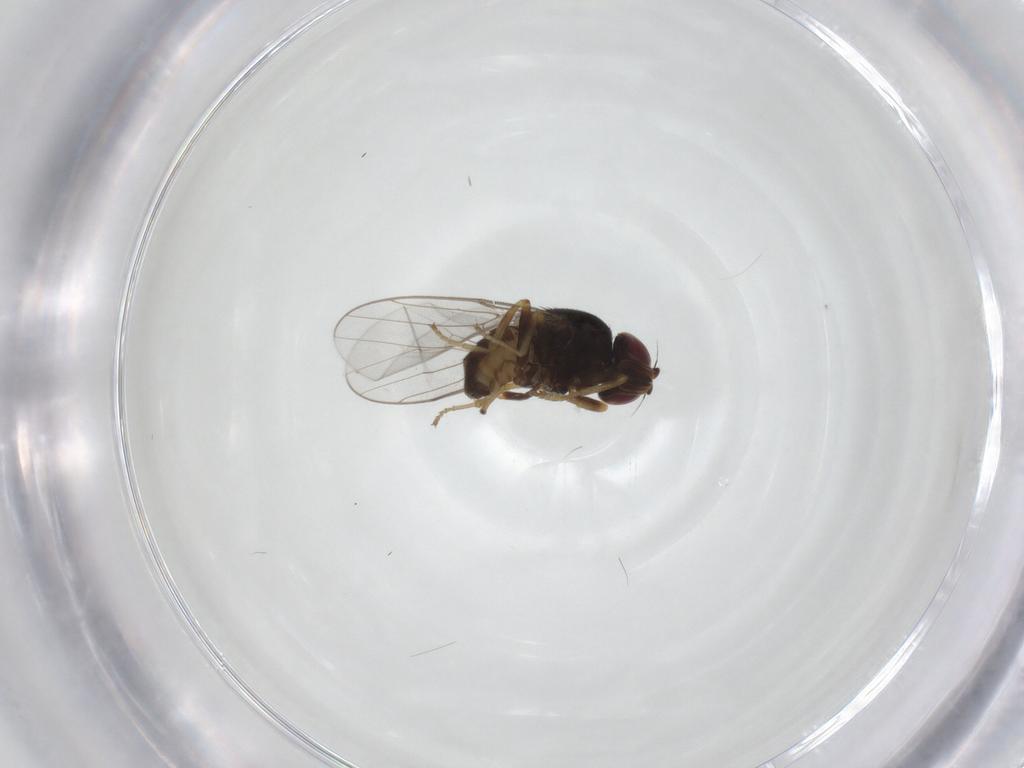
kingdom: Animalia
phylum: Arthropoda
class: Insecta
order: Diptera
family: Chloropidae
